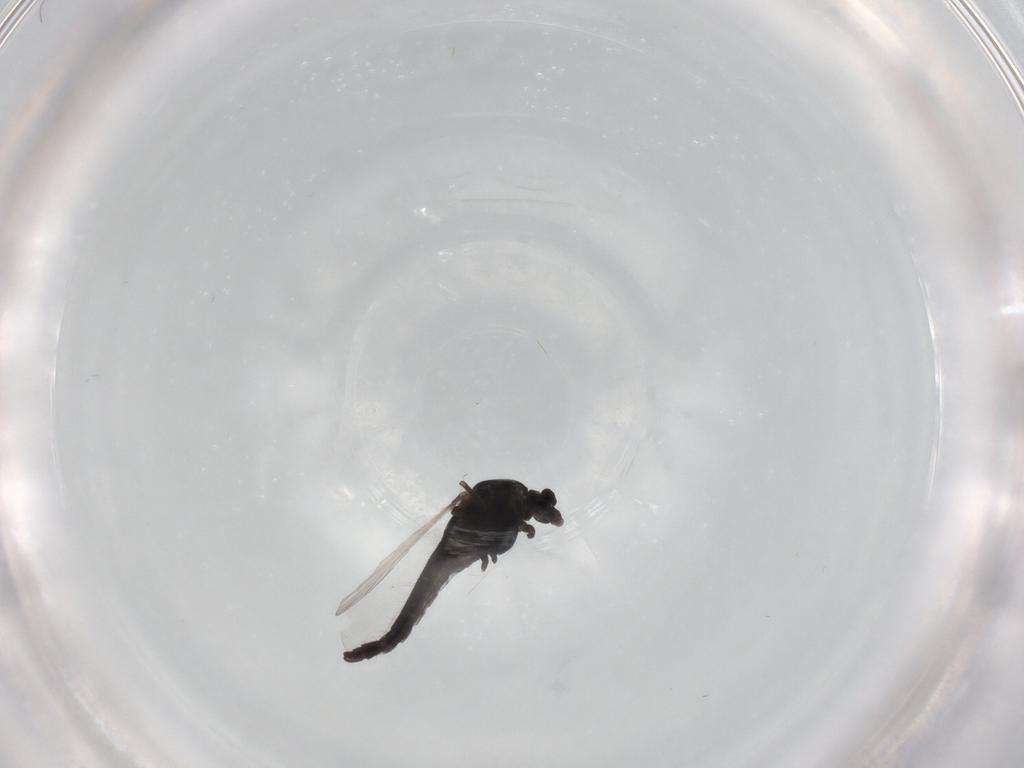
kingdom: Animalia
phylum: Arthropoda
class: Insecta
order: Diptera
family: Chironomidae
